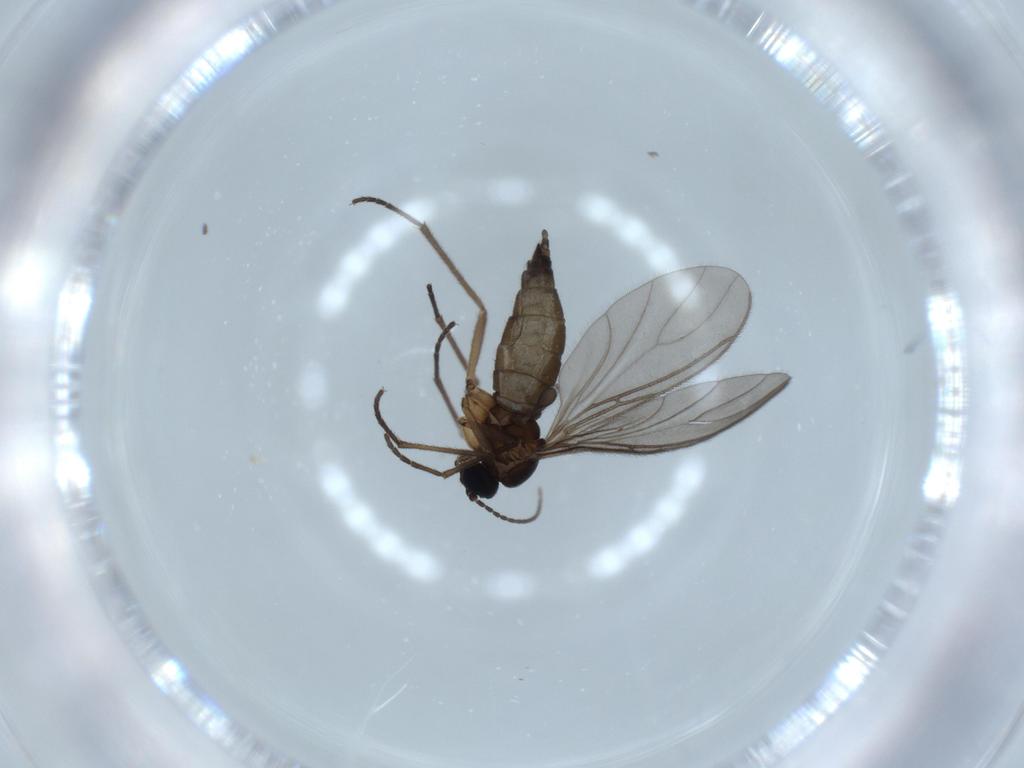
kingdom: Animalia
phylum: Arthropoda
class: Insecta
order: Diptera
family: Sciaridae
